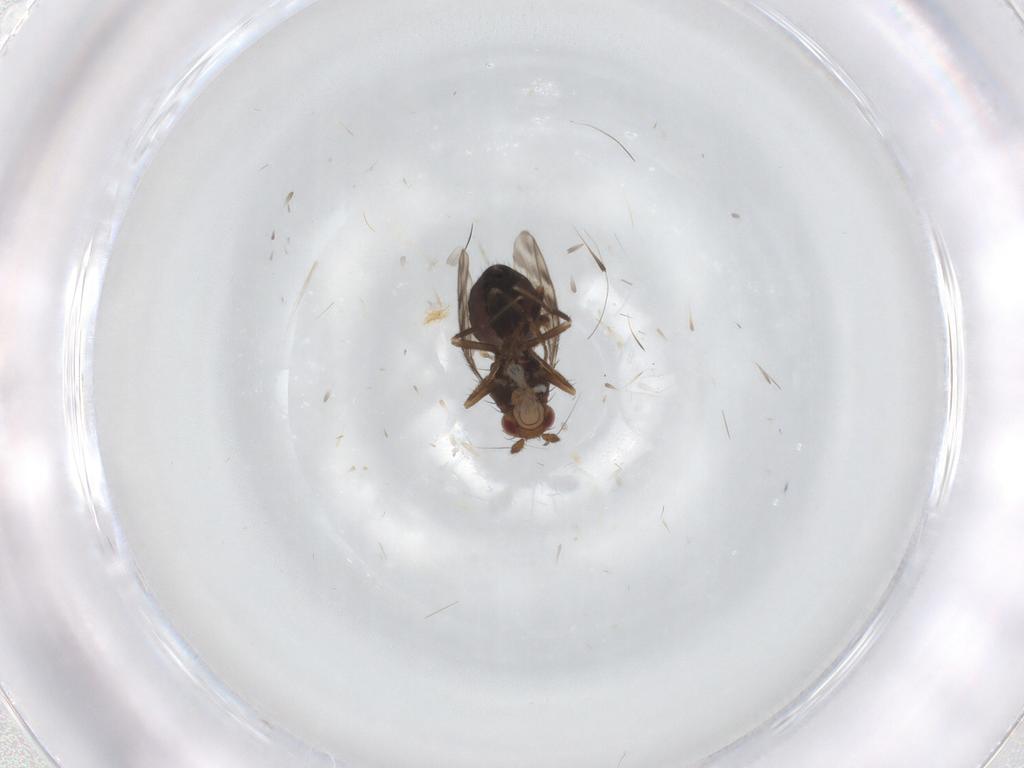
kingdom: Animalia
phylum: Arthropoda
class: Insecta
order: Diptera
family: Sphaeroceridae
